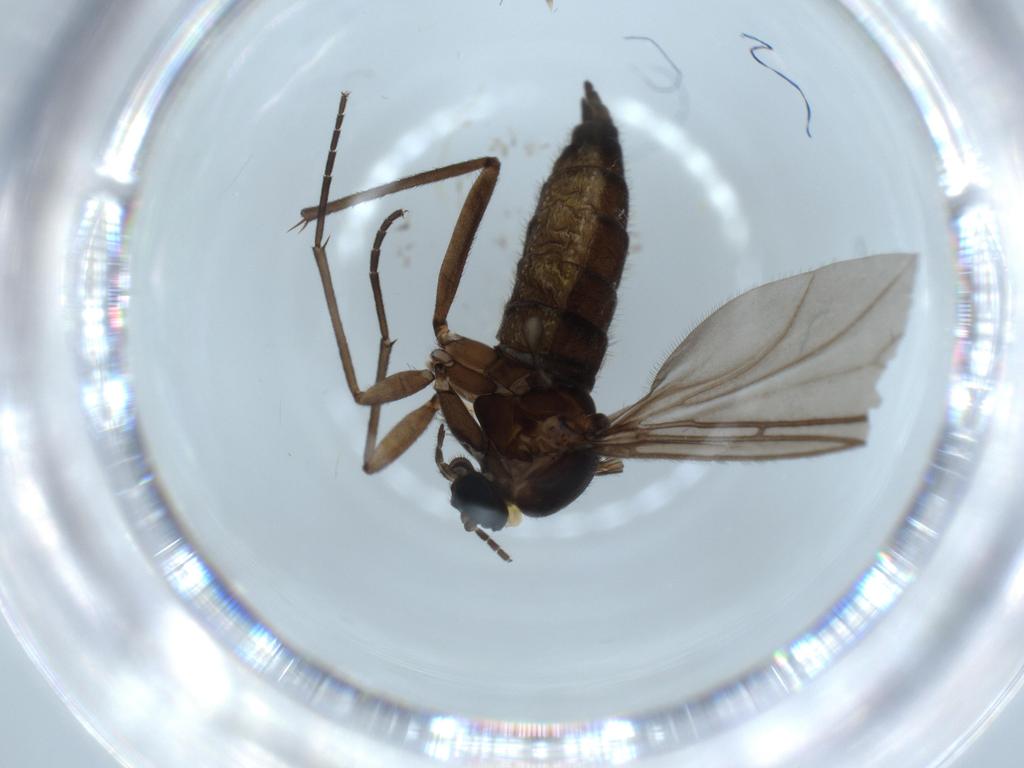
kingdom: Animalia
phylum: Arthropoda
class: Insecta
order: Diptera
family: Sciaridae
